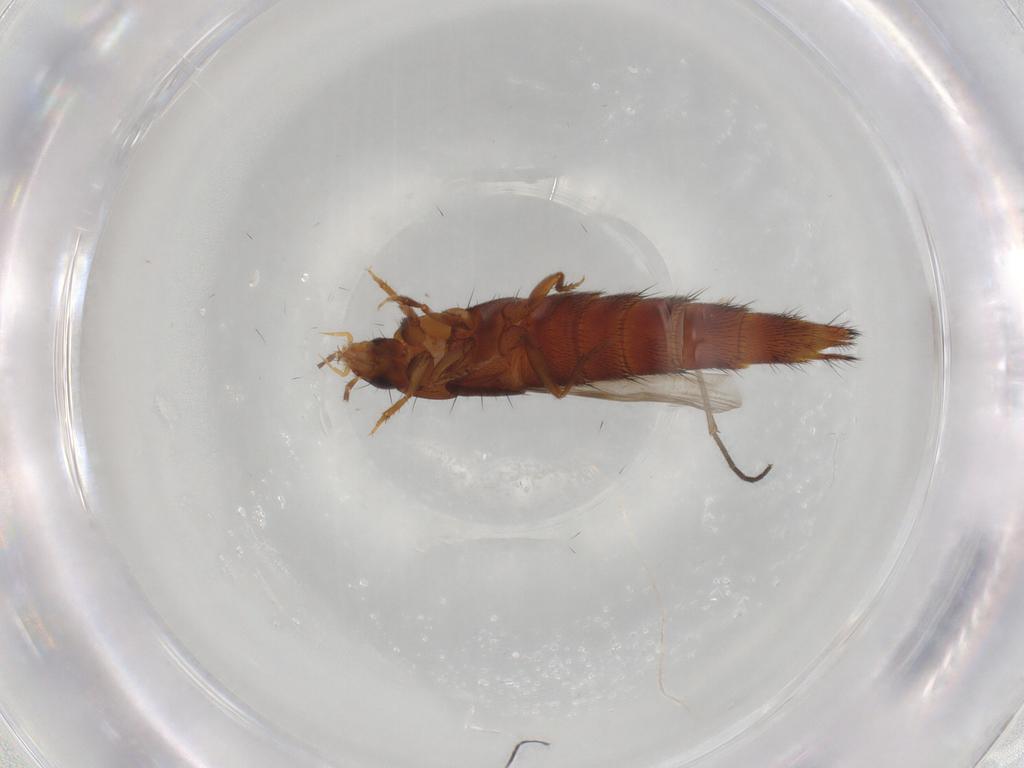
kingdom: Animalia
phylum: Arthropoda
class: Insecta
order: Coleoptera
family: Staphylinidae
